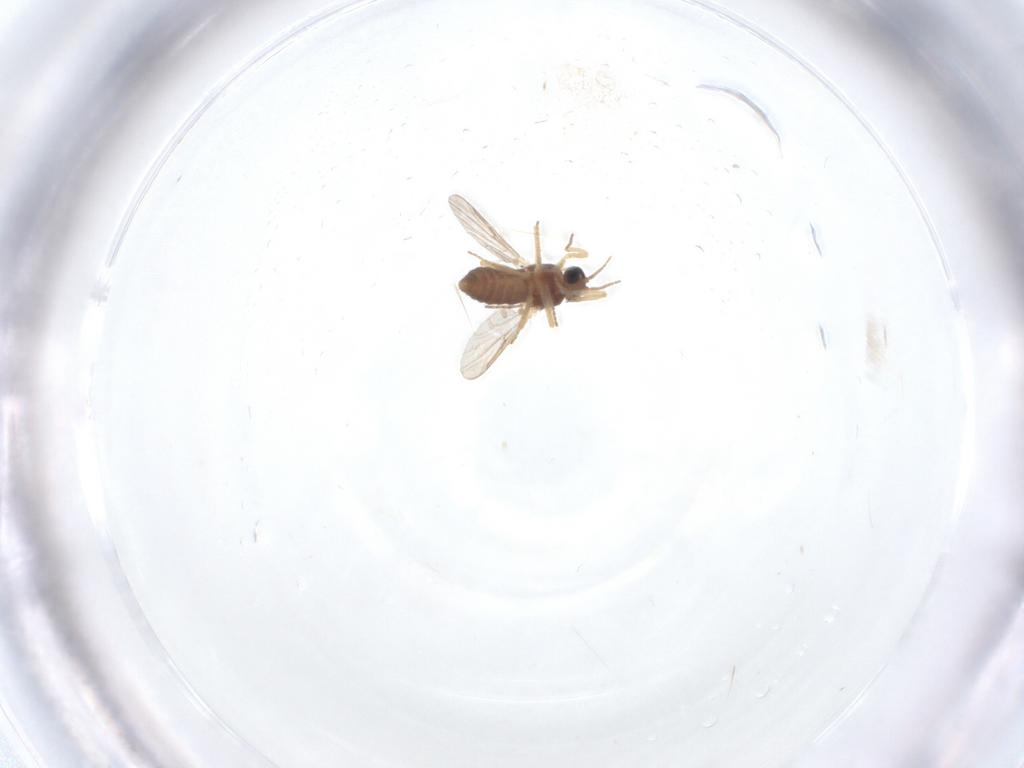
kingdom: Animalia
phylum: Arthropoda
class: Insecta
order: Diptera
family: Ceratopogonidae
